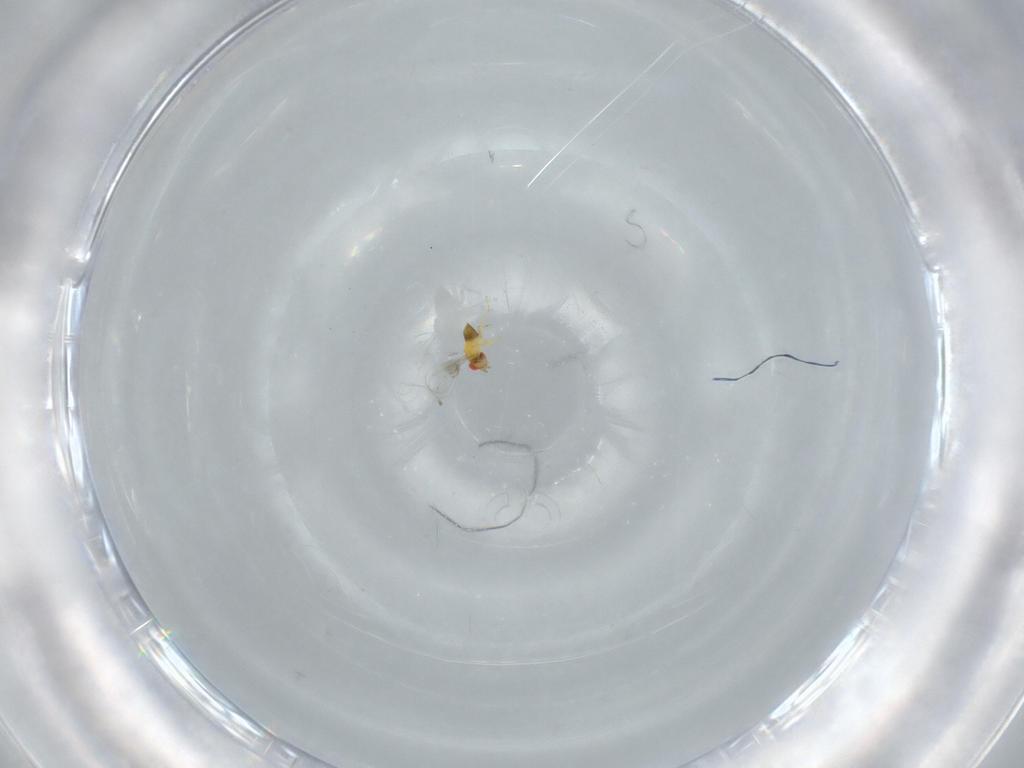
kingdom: Animalia
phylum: Arthropoda
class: Insecta
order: Hymenoptera
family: Trichogrammatidae
